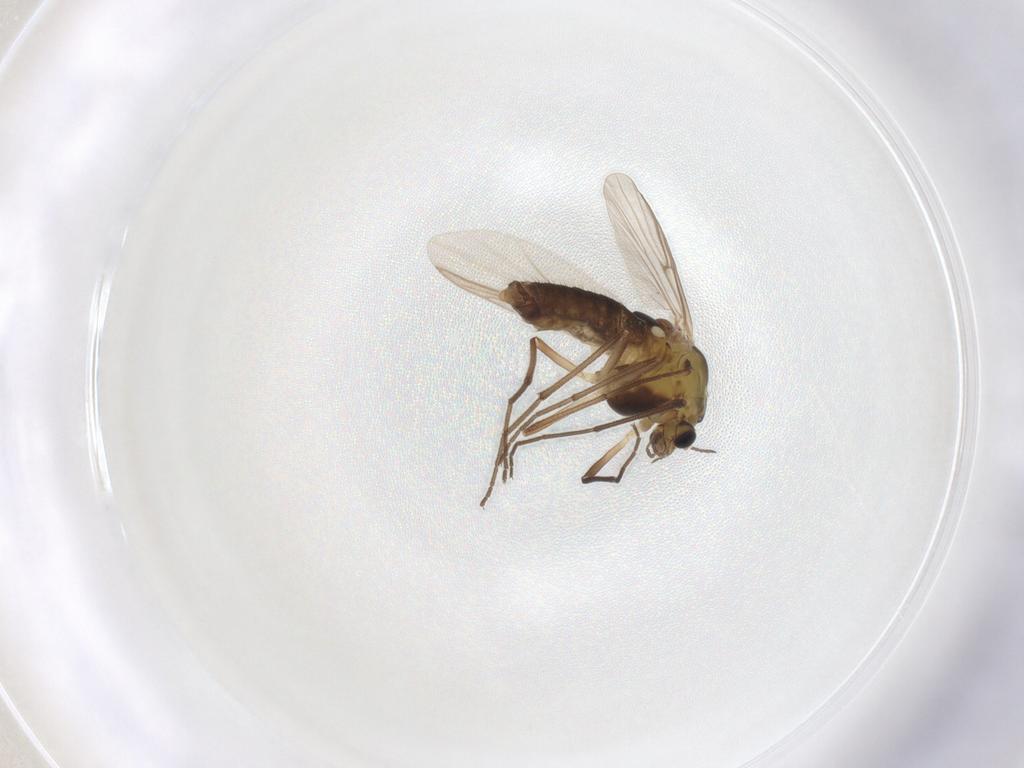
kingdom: Animalia
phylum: Arthropoda
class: Insecta
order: Diptera
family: Chironomidae
